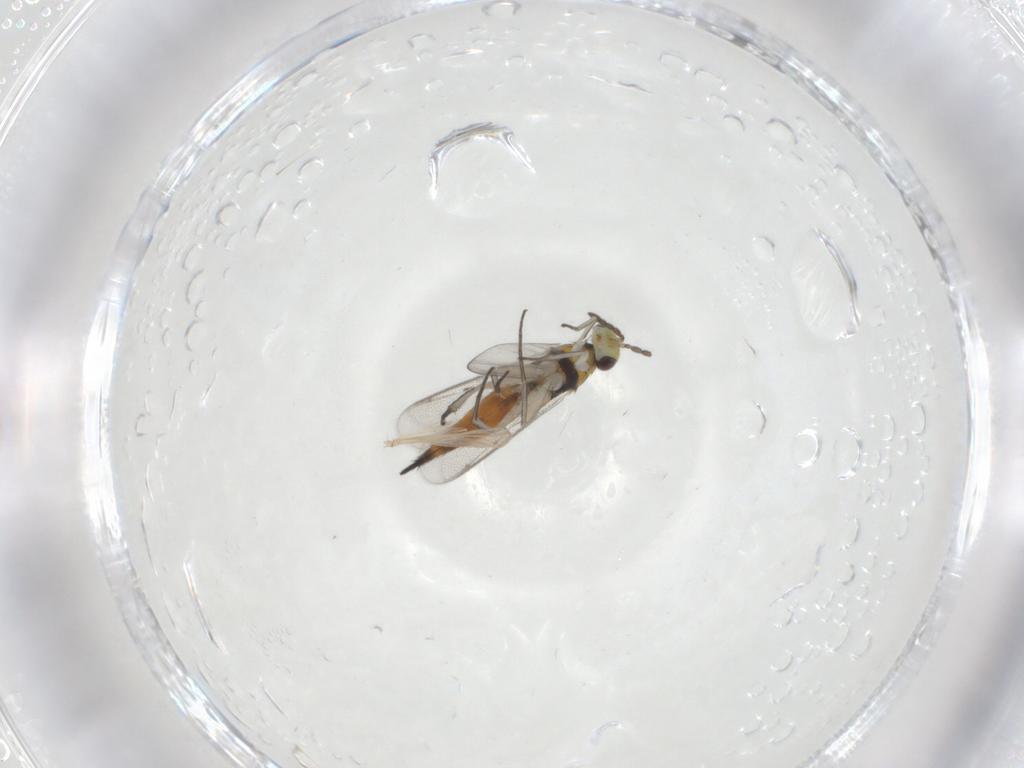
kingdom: Animalia
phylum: Arthropoda
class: Insecta
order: Hymenoptera
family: Eulophidae
